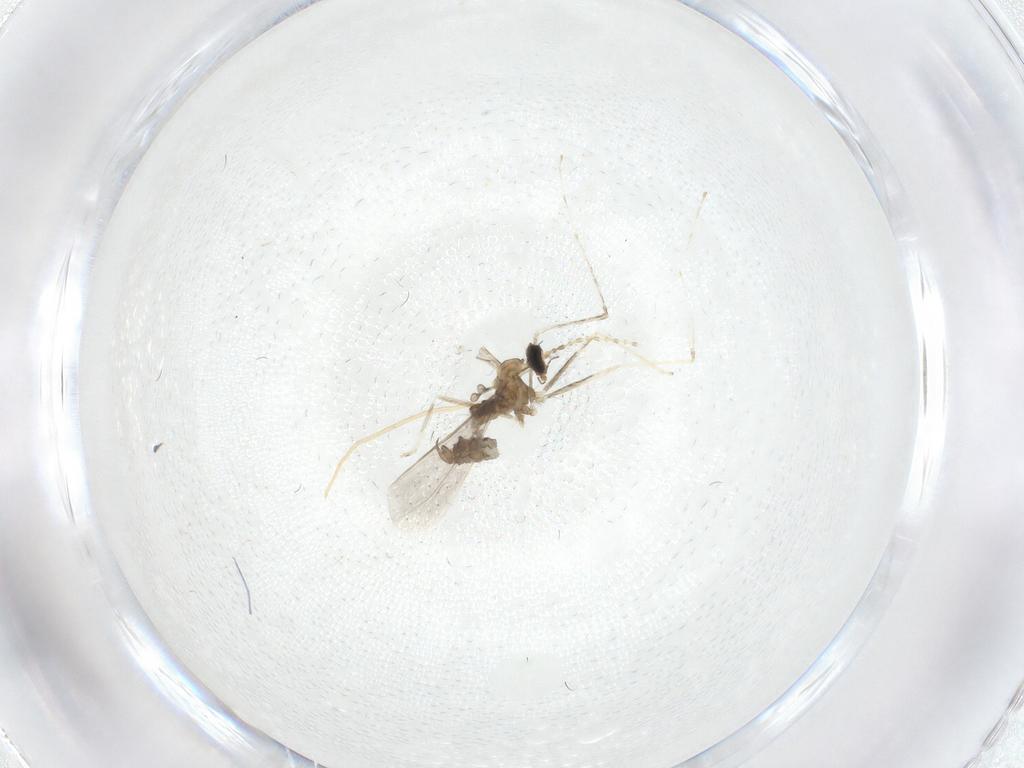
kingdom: Animalia
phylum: Arthropoda
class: Insecta
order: Diptera
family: Cecidomyiidae
